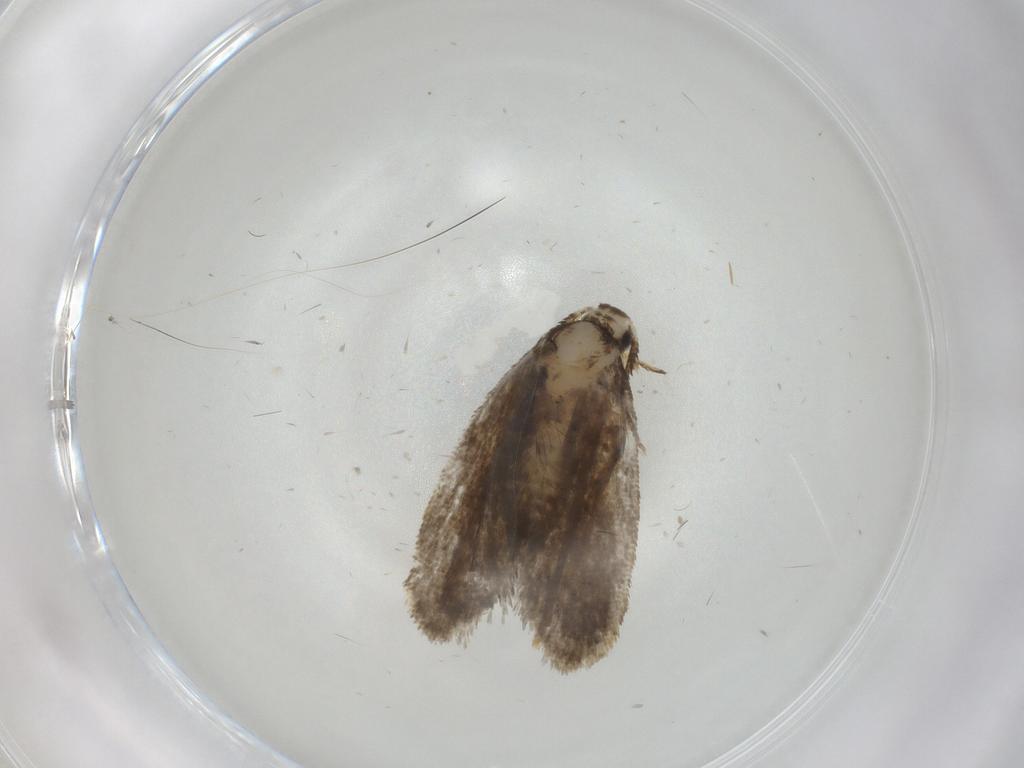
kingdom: Animalia
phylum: Arthropoda
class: Insecta
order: Lepidoptera
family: Psychidae
